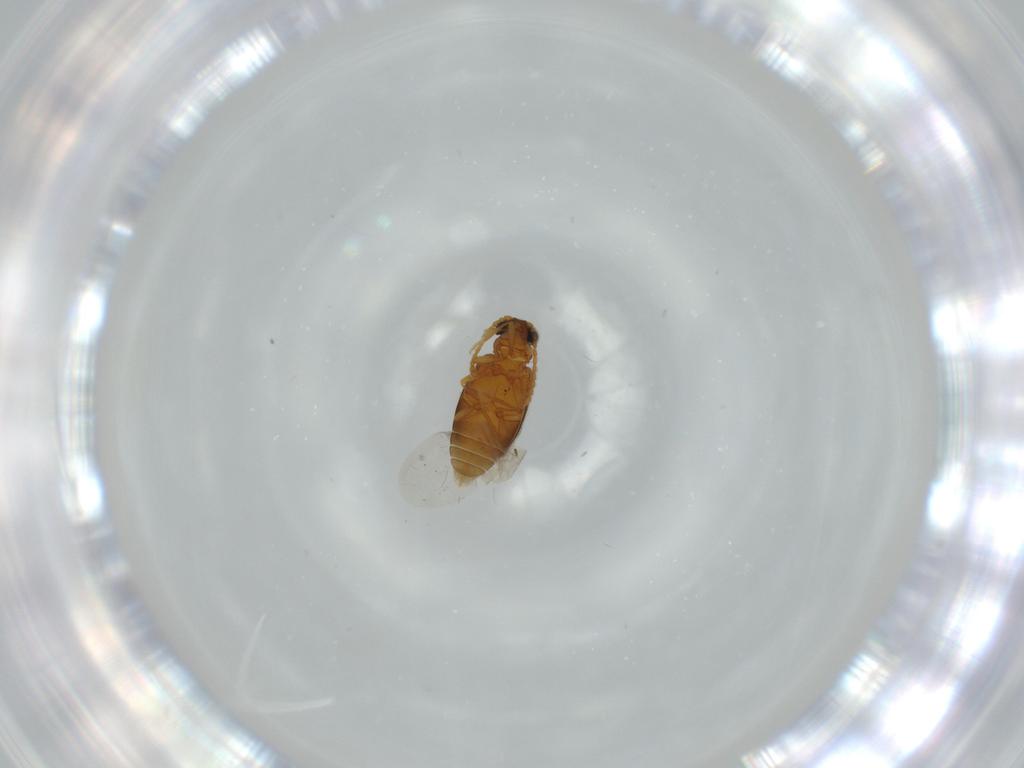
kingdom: Animalia
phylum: Arthropoda
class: Insecta
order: Coleoptera
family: Aderidae
